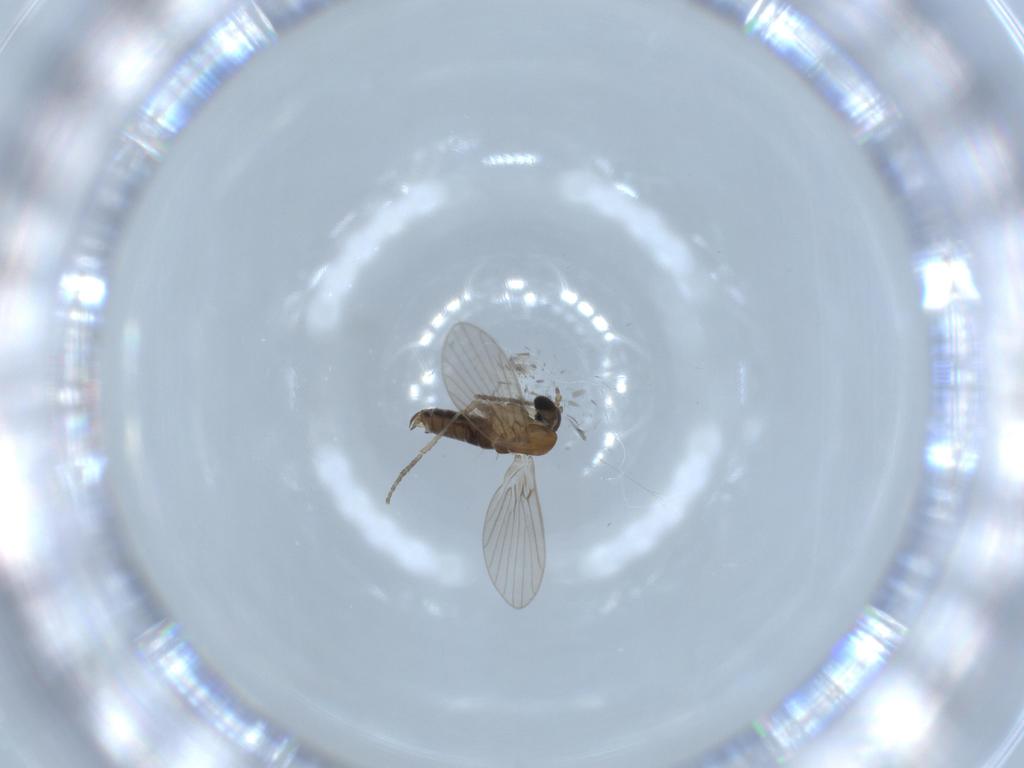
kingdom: Animalia
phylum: Arthropoda
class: Insecta
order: Diptera
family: Psychodidae
